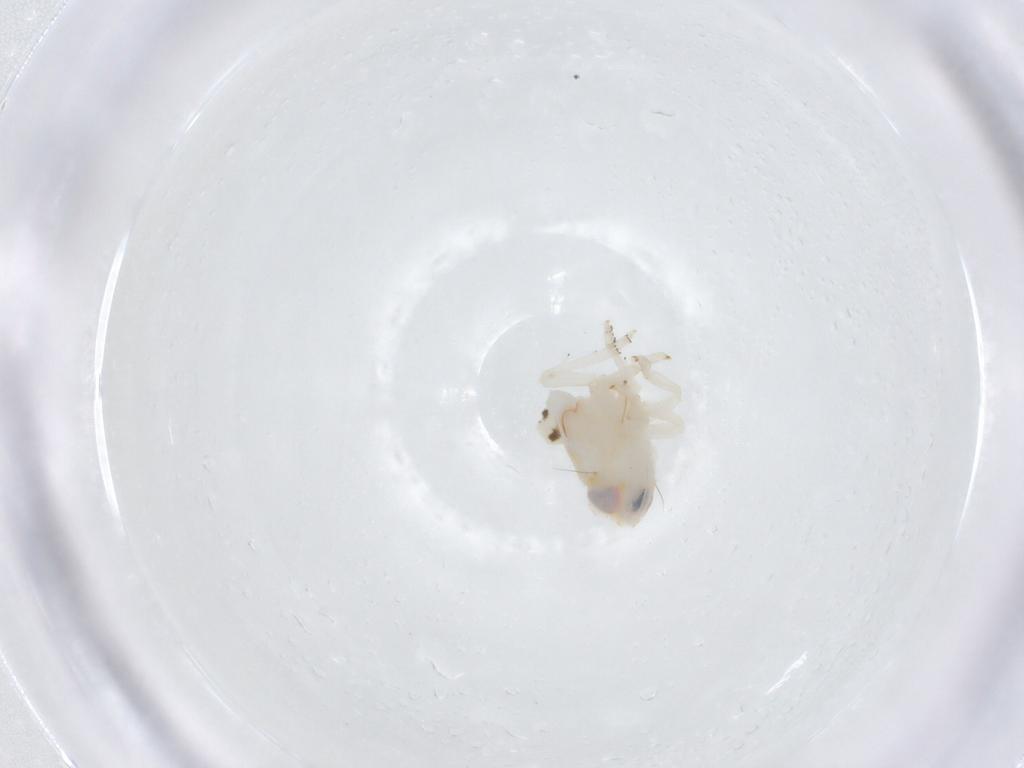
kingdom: Animalia
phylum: Arthropoda
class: Insecta
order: Hemiptera
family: Nogodinidae
